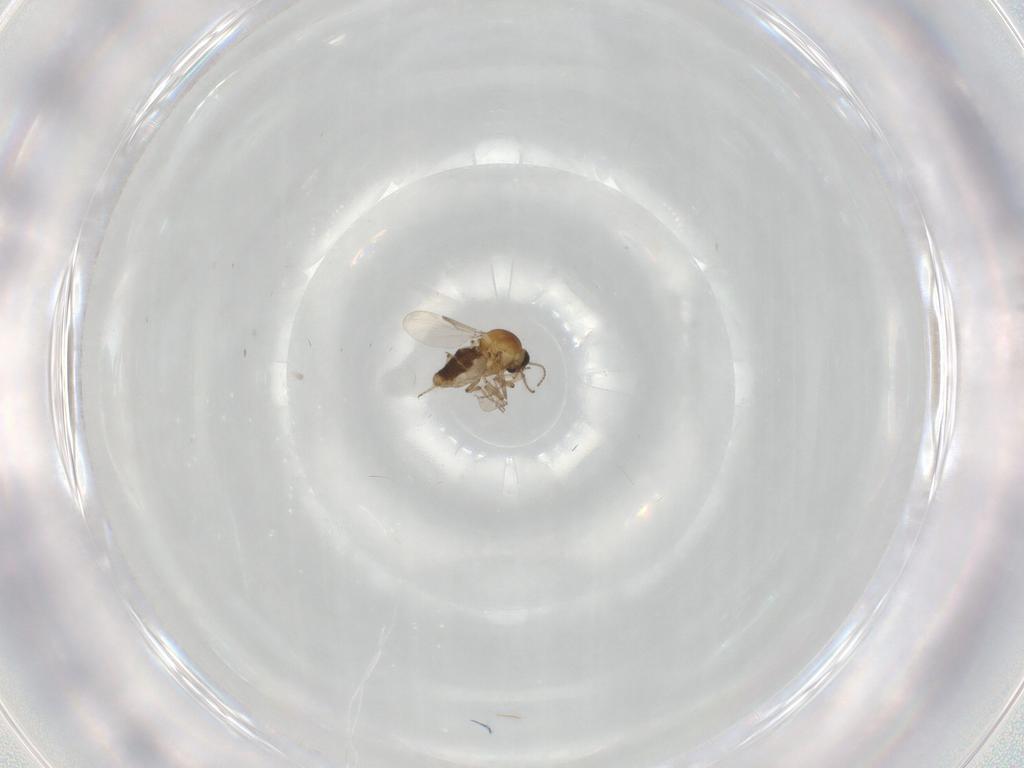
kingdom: Animalia
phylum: Arthropoda
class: Insecta
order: Diptera
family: Ceratopogonidae
